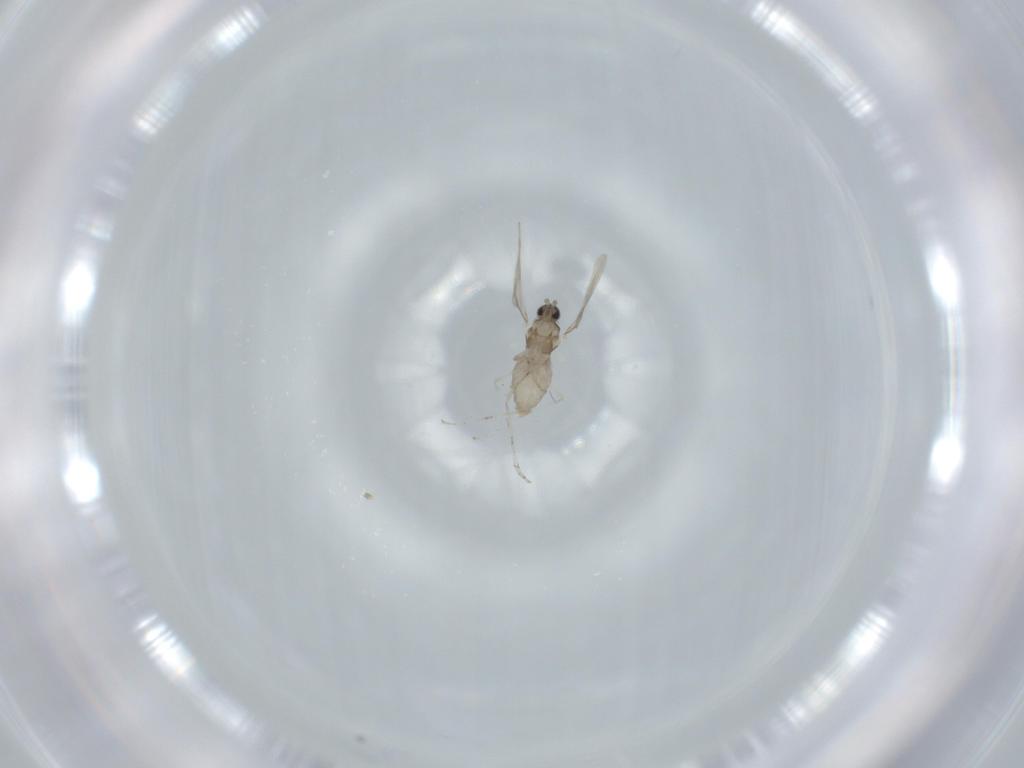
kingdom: Animalia
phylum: Arthropoda
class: Insecta
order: Diptera
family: Cecidomyiidae
